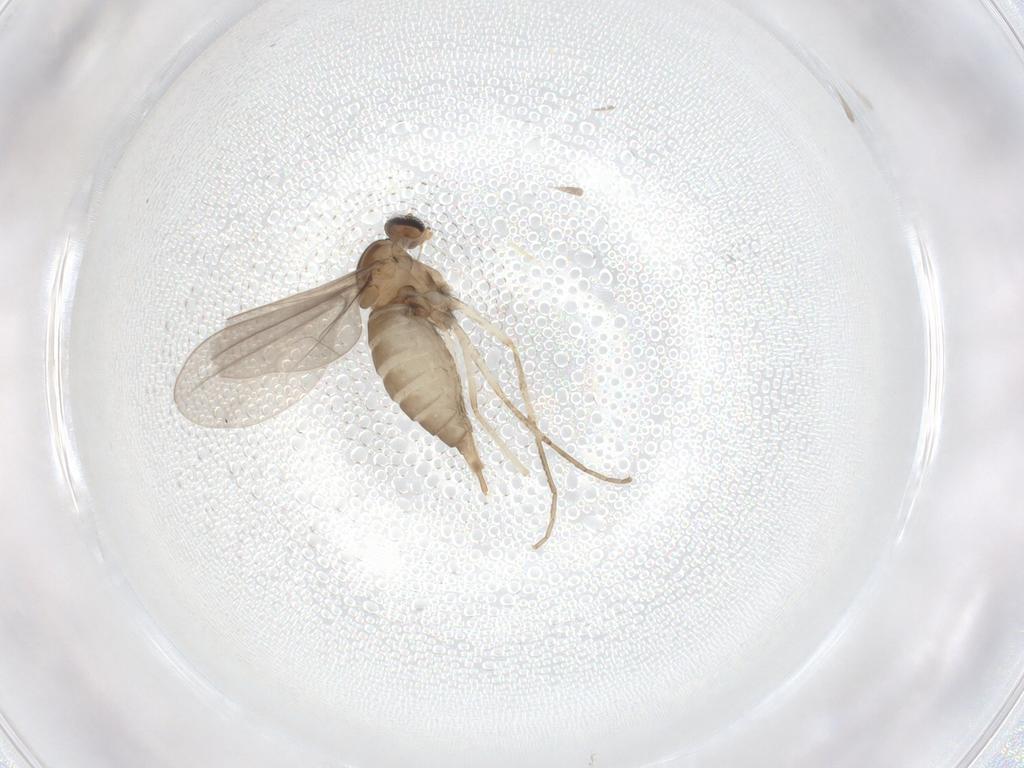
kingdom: Animalia
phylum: Arthropoda
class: Insecta
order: Diptera
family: Cecidomyiidae
